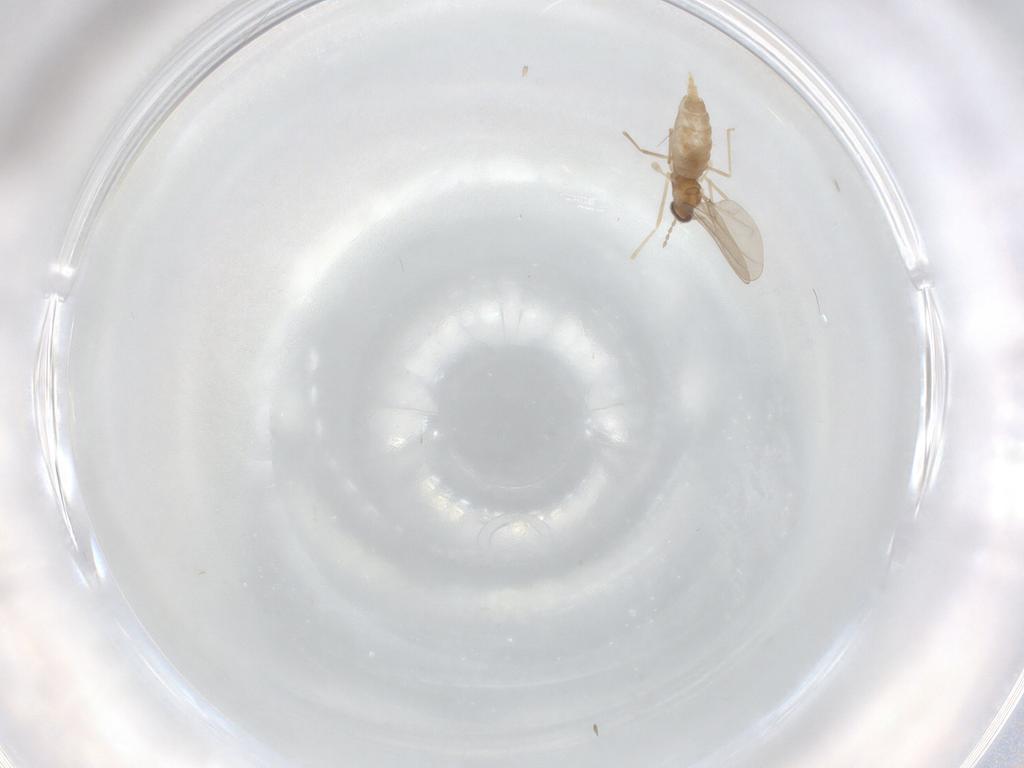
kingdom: Animalia
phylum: Arthropoda
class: Insecta
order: Diptera
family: Cecidomyiidae
